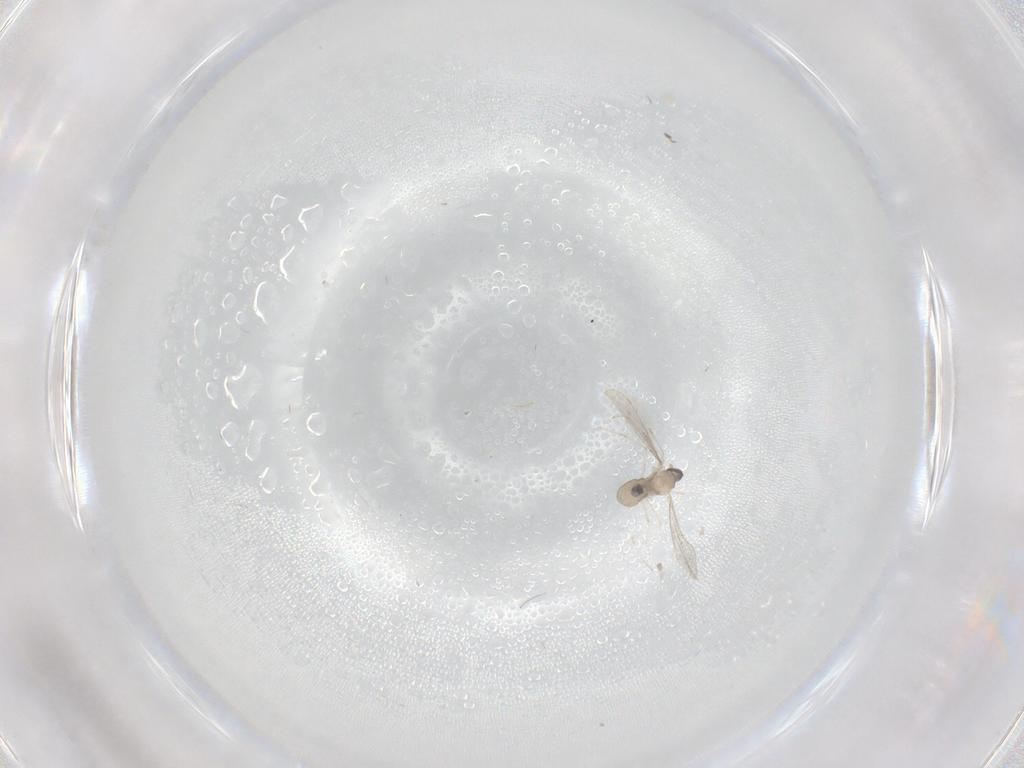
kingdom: Animalia
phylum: Arthropoda
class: Insecta
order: Diptera
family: Cecidomyiidae
